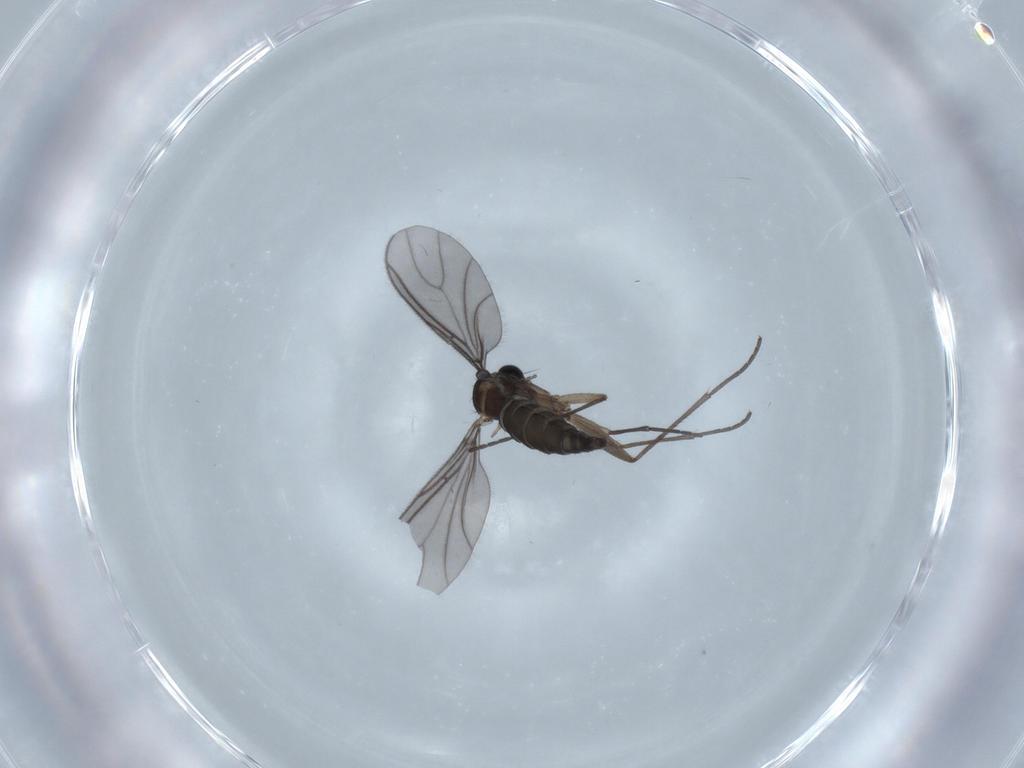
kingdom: Animalia
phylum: Arthropoda
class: Insecta
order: Diptera
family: Sciaridae
